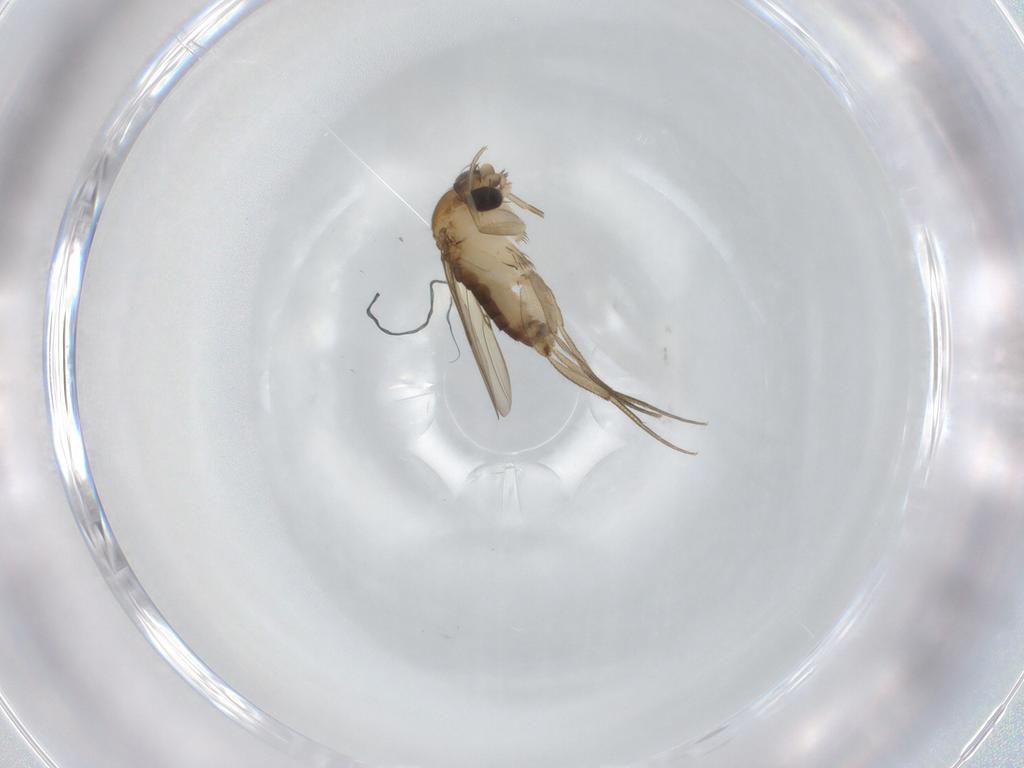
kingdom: Animalia
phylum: Arthropoda
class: Insecta
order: Diptera
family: Phoridae
